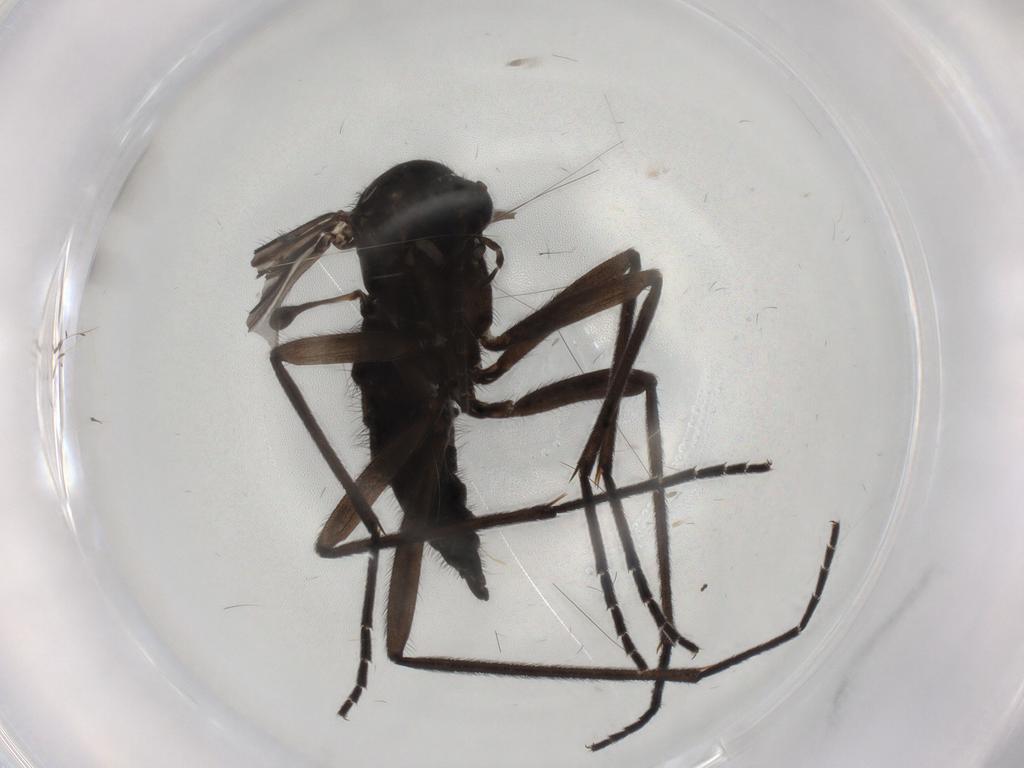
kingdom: Animalia
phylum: Arthropoda
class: Insecta
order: Diptera
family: Sciaridae
